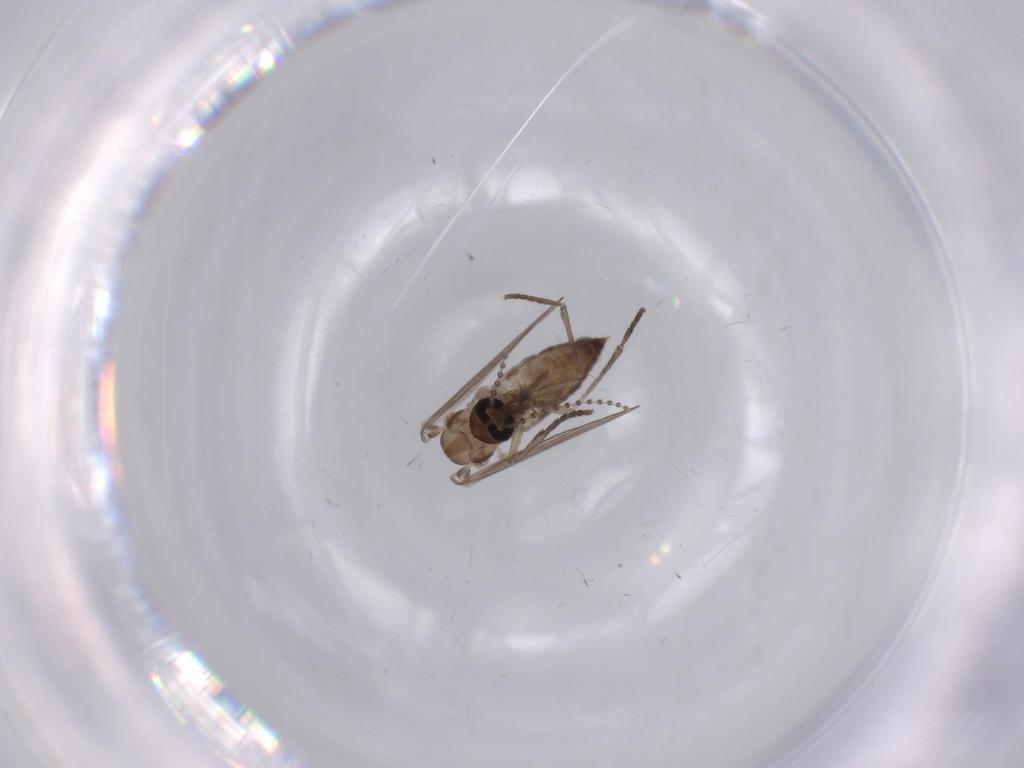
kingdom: Animalia
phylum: Arthropoda
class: Insecta
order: Diptera
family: Psychodidae
